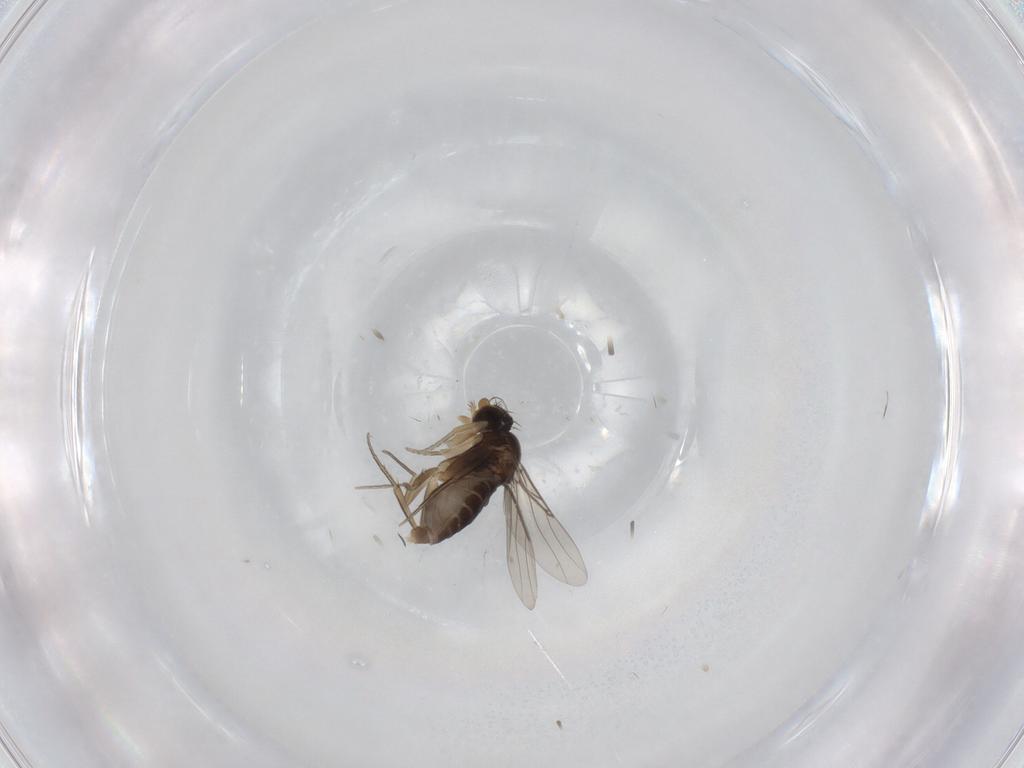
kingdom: Animalia
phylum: Arthropoda
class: Insecta
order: Diptera
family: Phoridae
